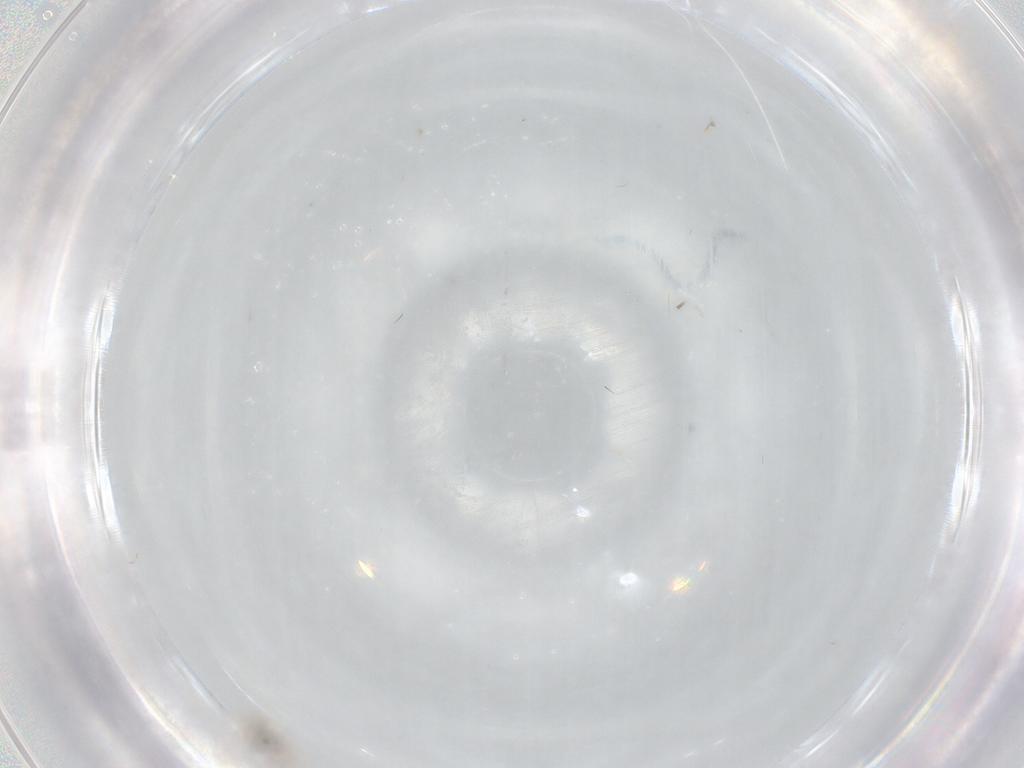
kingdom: Animalia
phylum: Arthropoda
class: Insecta
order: Diptera
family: Cecidomyiidae
